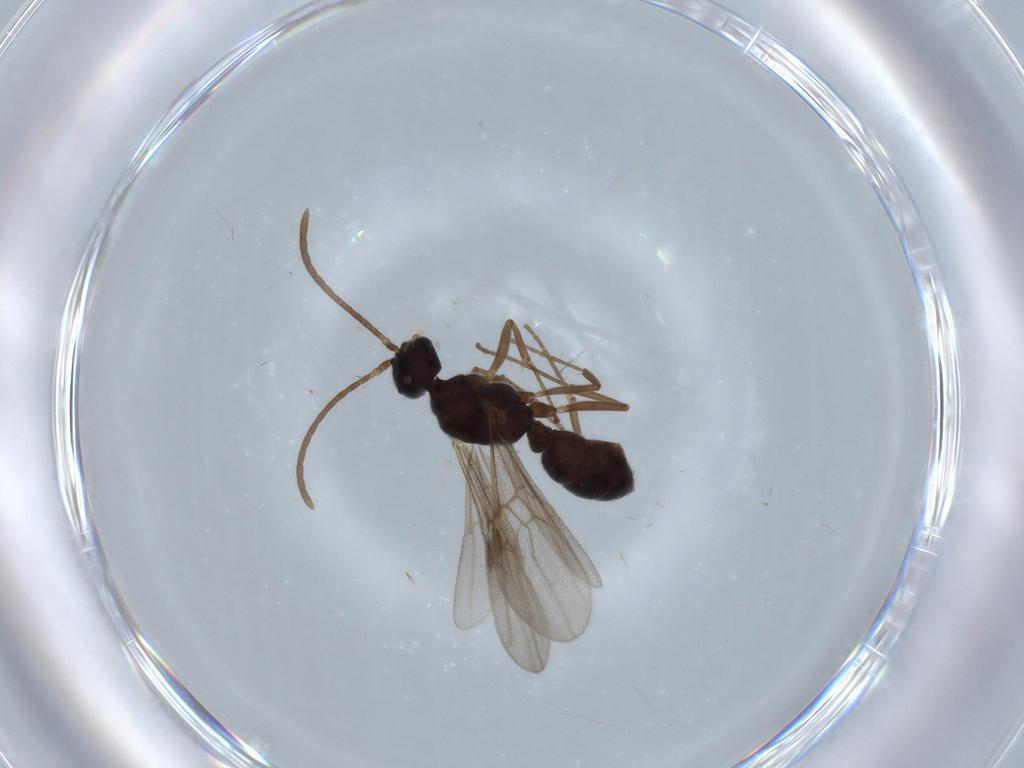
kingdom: Animalia
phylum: Arthropoda
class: Insecta
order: Hymenoptera
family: Formicidae
